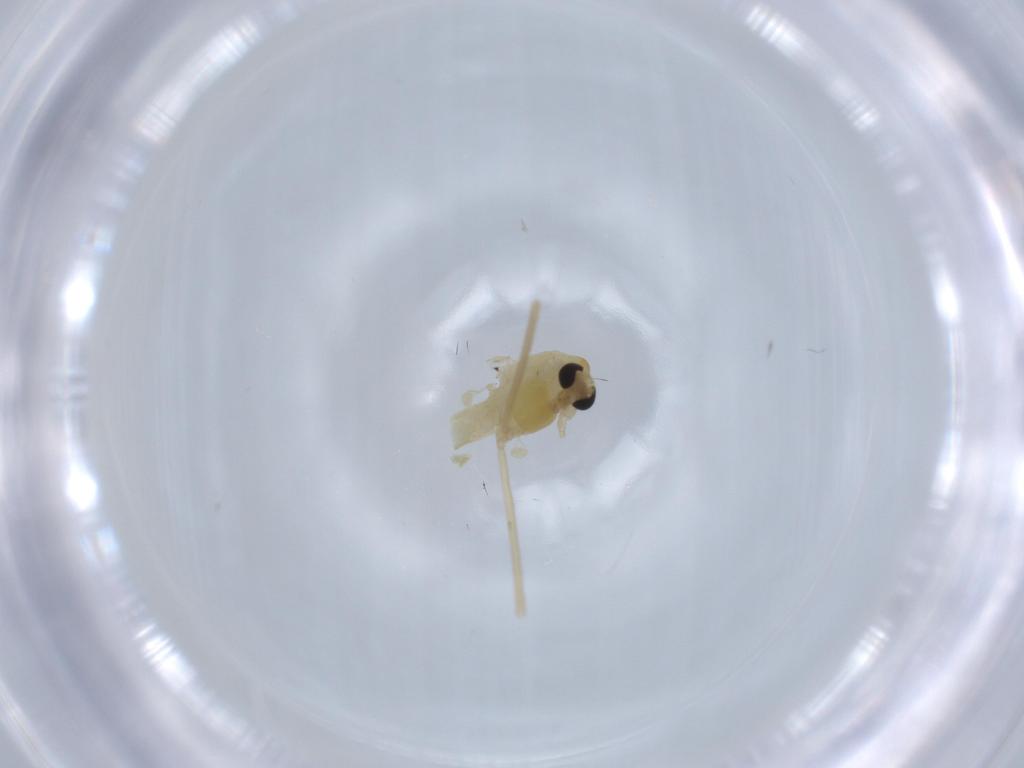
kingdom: Animalia
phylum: Arthropoda
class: Insecta
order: Diptera
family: Chironomidae
